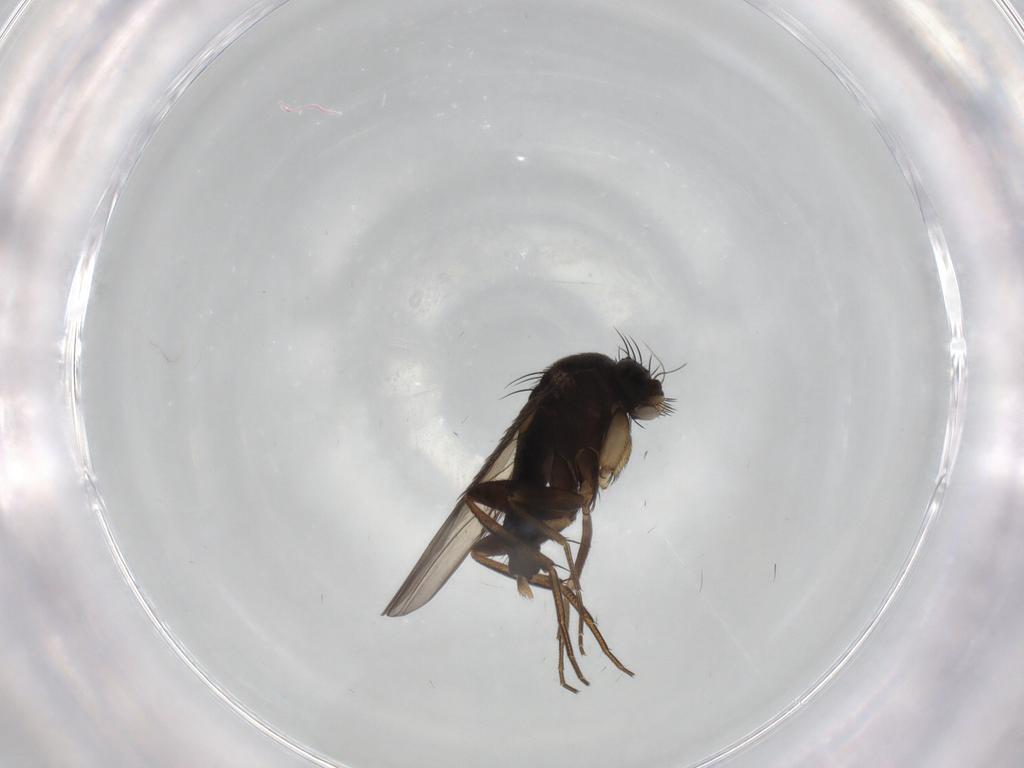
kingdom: Animalia
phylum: Arthropoda
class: Insecta
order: Diptera
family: Phoridae
